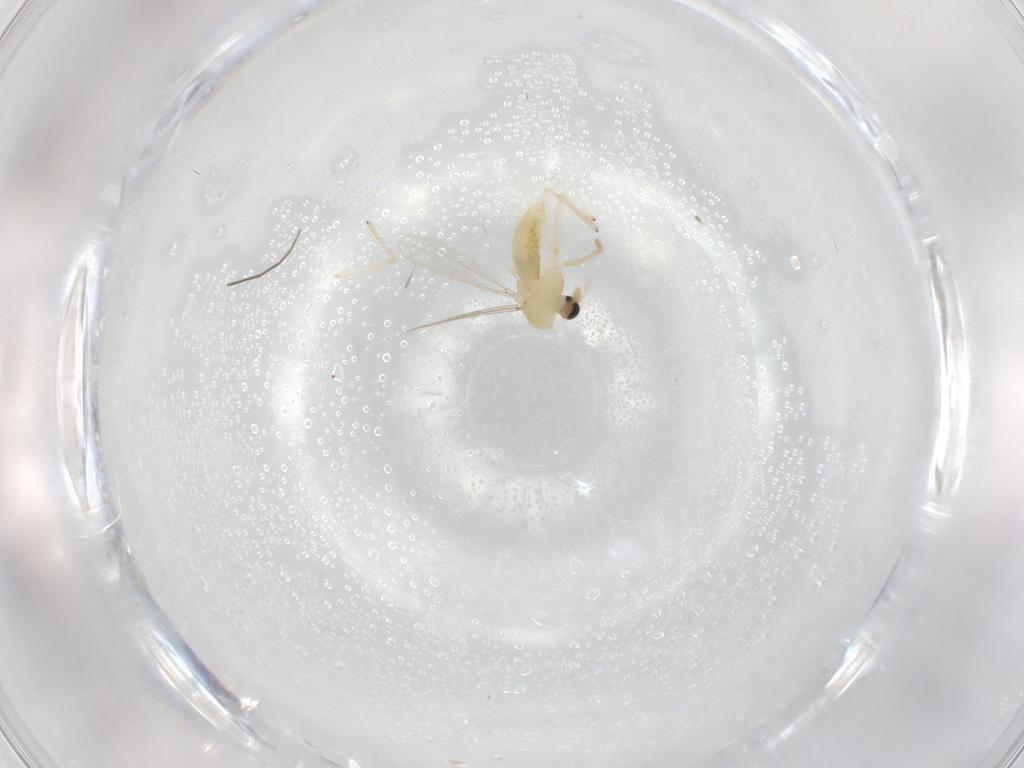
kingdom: Animalia
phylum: Arthropoda
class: Insecta
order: Diptera
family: Chironomidae
